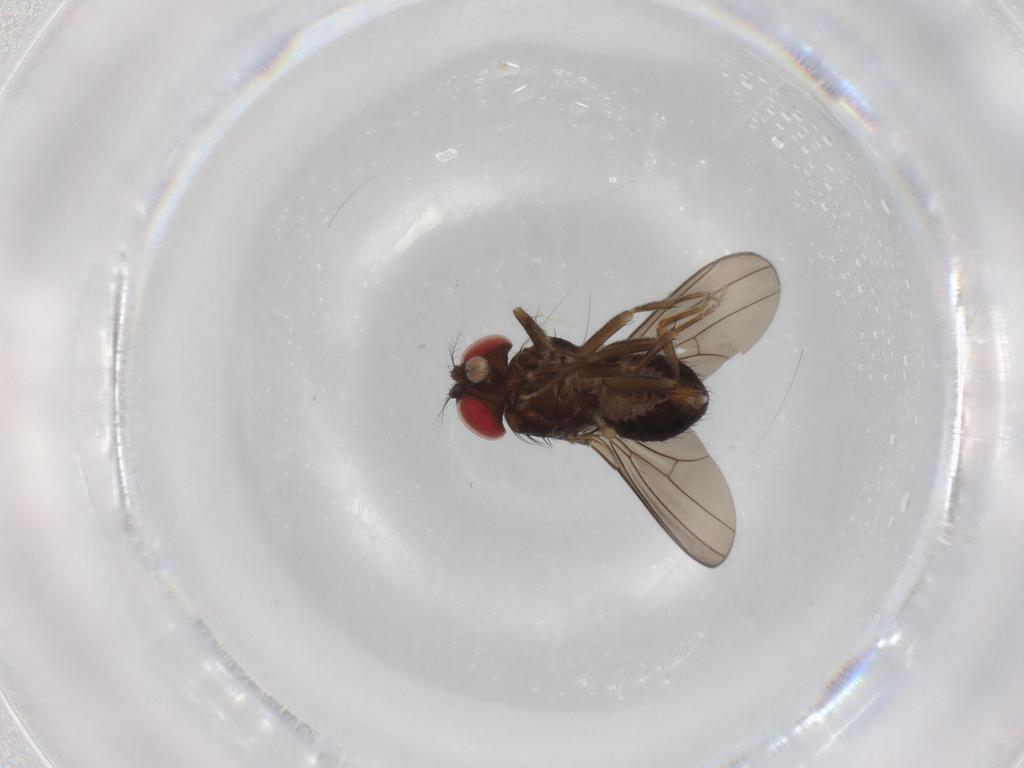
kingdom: Animalia
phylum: Arthropoda
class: Insecta
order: Diptera
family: Drosophilidae
